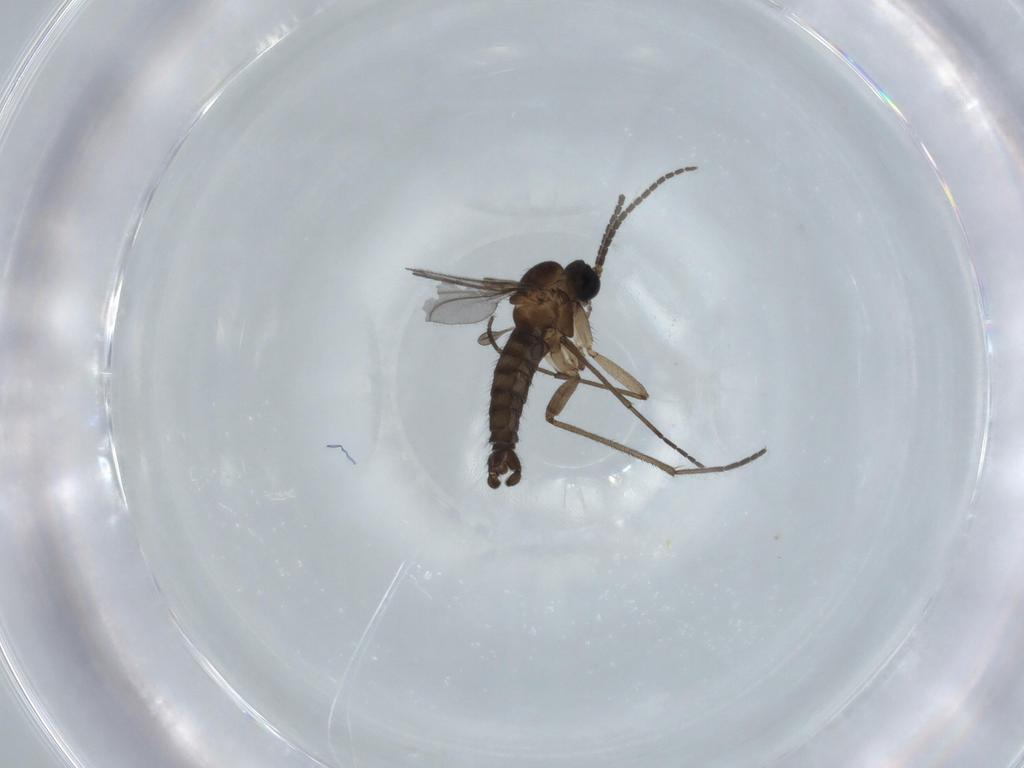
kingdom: Animalia
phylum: Arthropoda
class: Insecta
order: Diptera
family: Sciaridae
